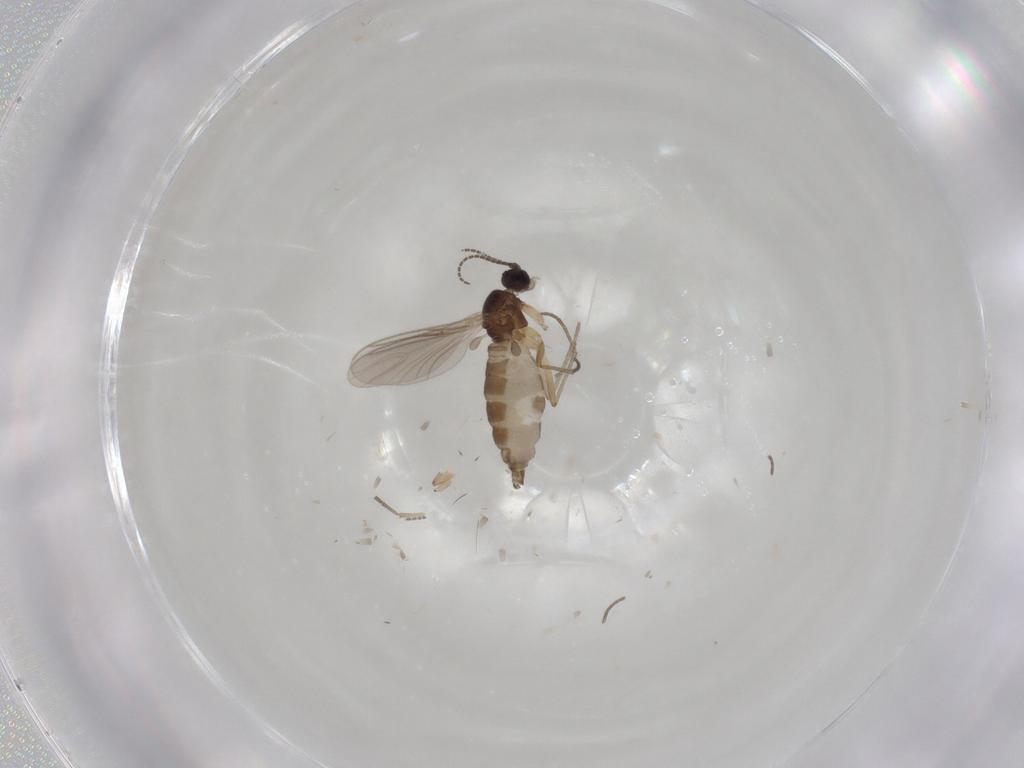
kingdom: Animalia
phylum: Arthropoda
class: Insecta
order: Diptera
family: Sciaridae
